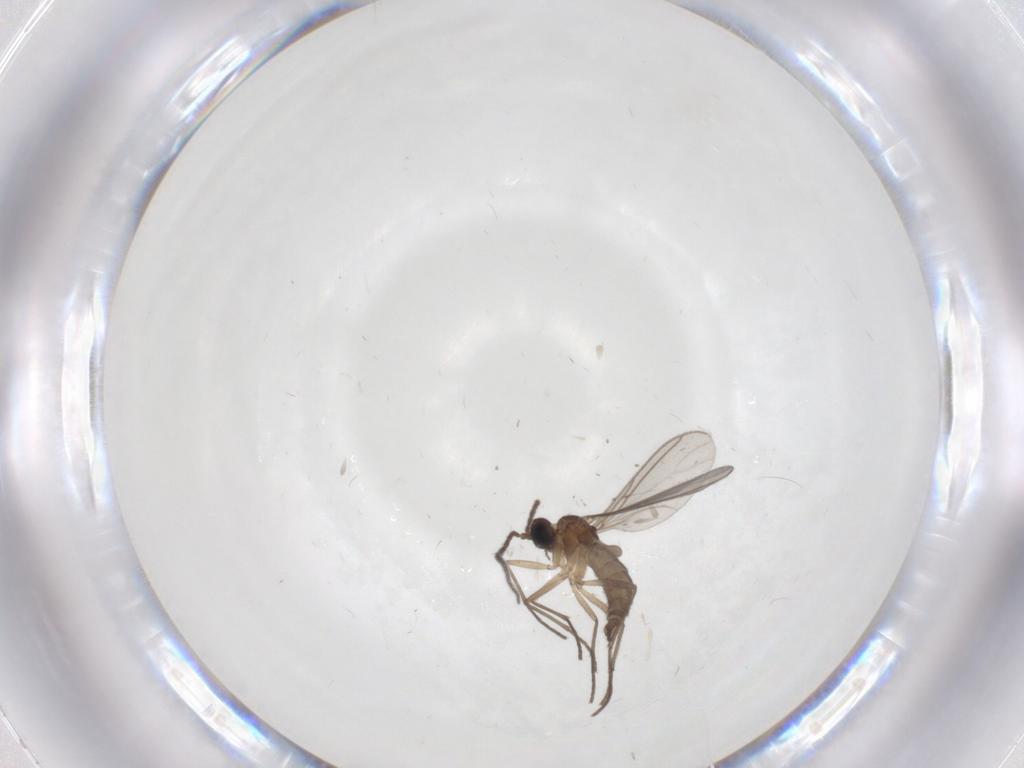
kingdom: Animalia
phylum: Arthropoda
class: Insecta
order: Diptera
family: Sciaridae
